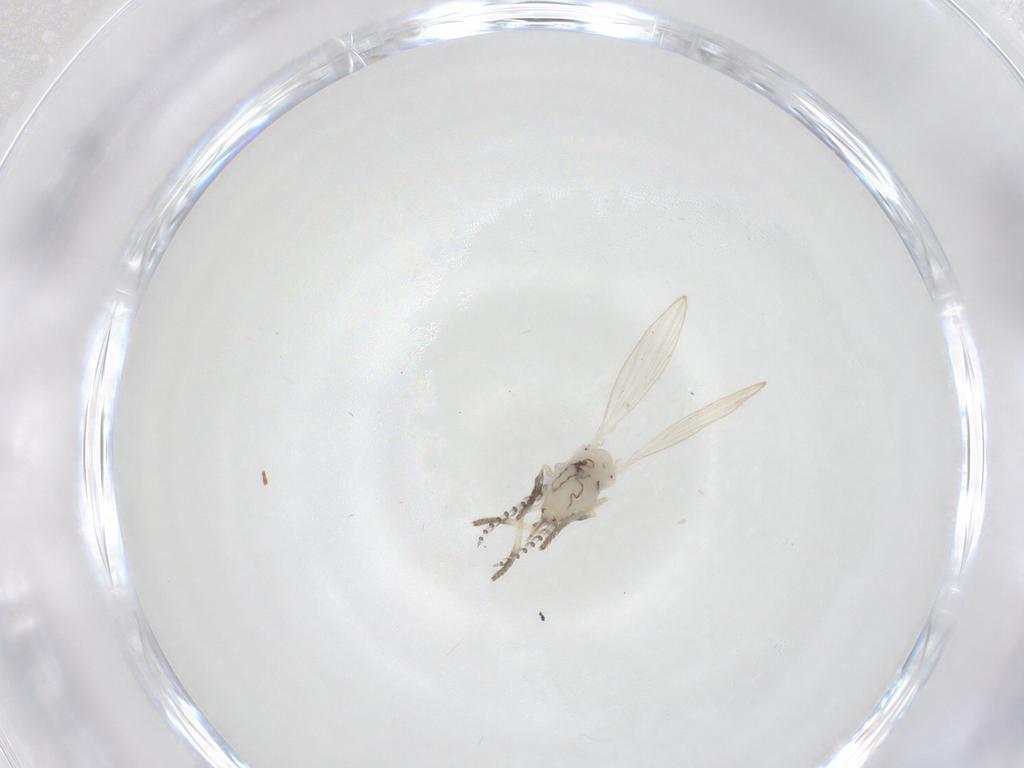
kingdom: Animalia
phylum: Arthropoda
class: Insecta
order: Diptera
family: Psychodidae
